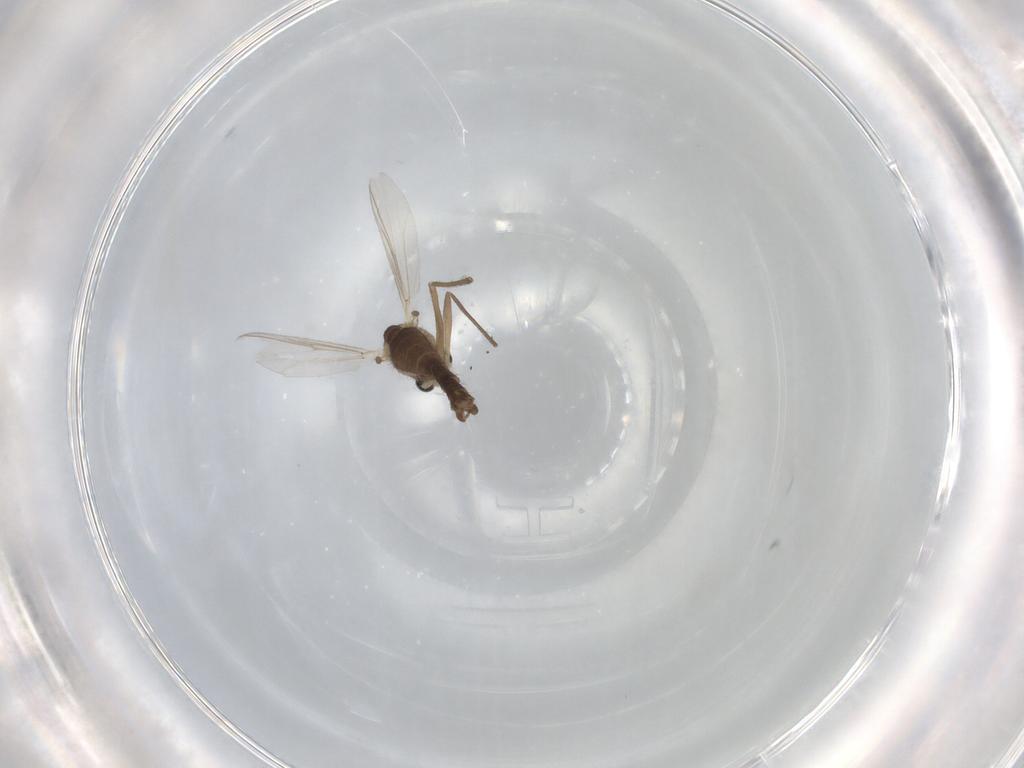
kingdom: Animalia
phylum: Arthropoda
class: Insecta
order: Diptera
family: Chironomidae
